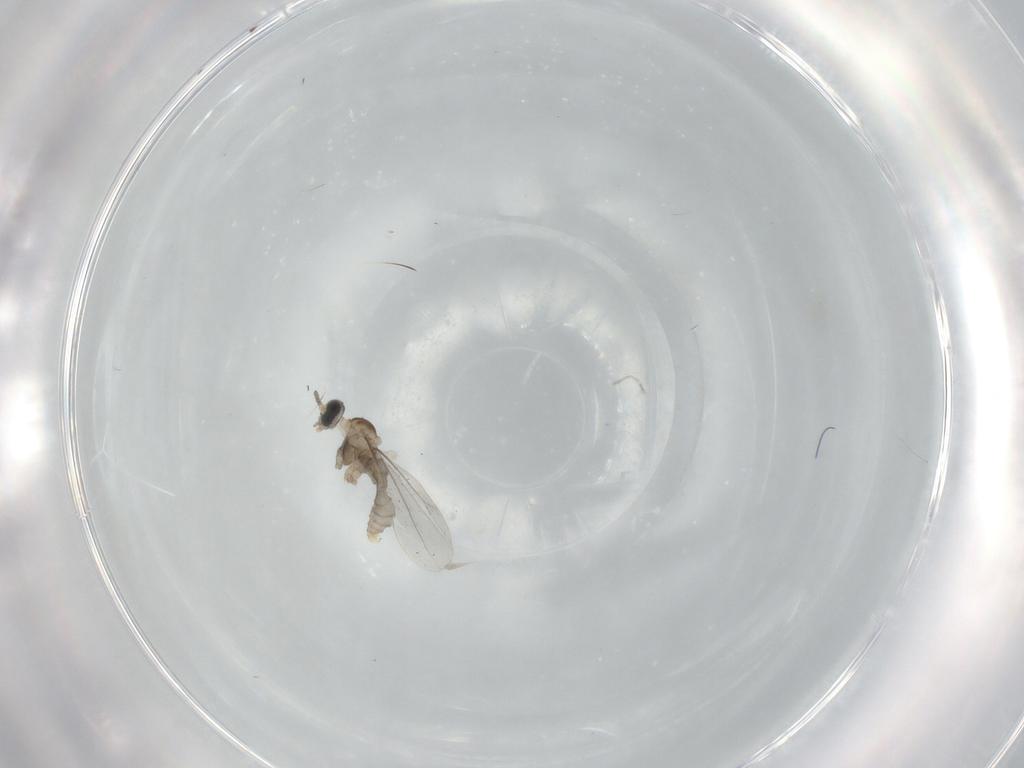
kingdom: Animalia
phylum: Arthropoda
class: Insecta
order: Diptera
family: Cecidomyiidae
